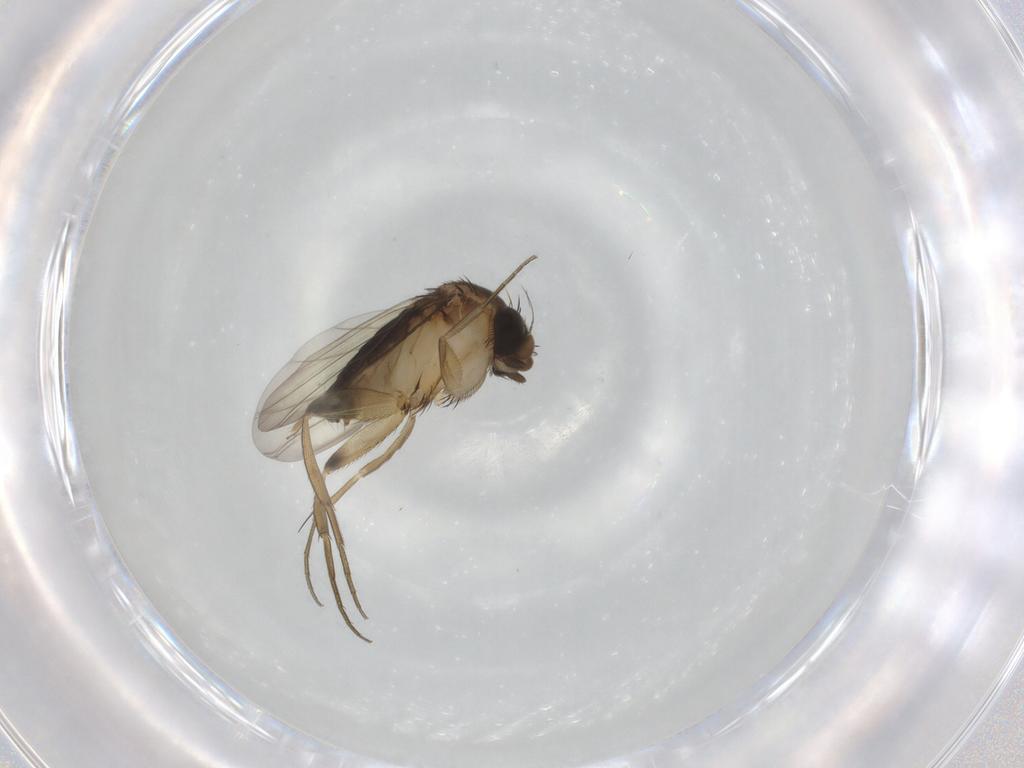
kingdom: Animalia
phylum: Arthropoda
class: Insecta
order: Diptera
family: Phoridae
